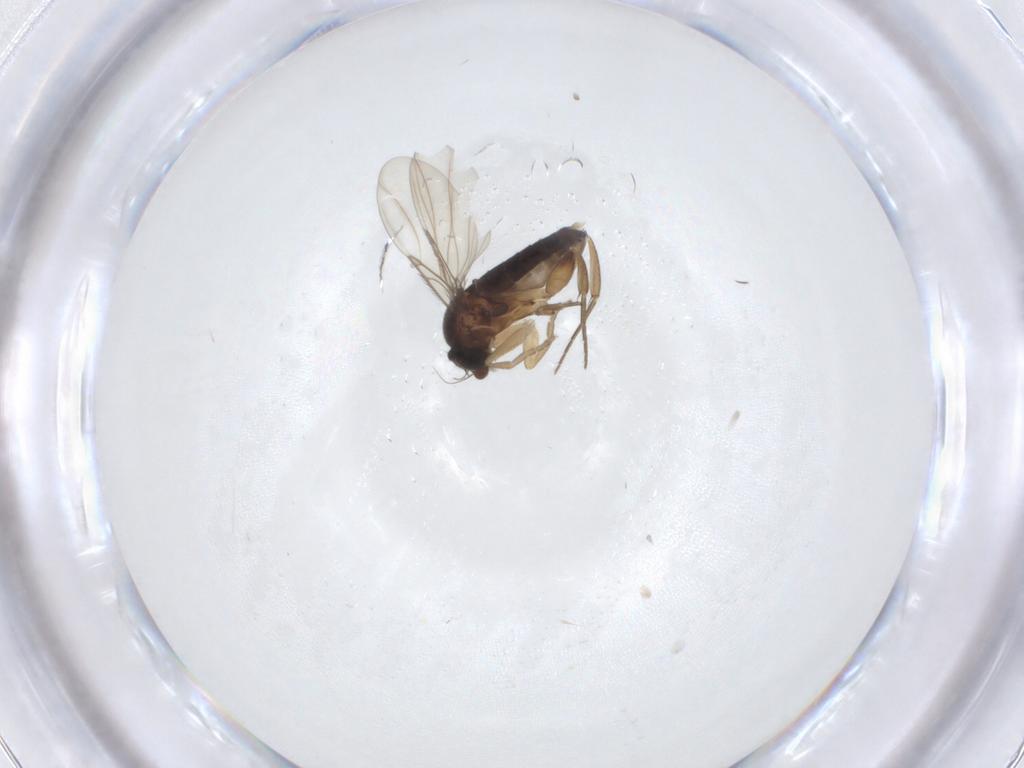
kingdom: Animalia
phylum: Arthropoda
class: Insecta
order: Diptera
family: Phoridae
